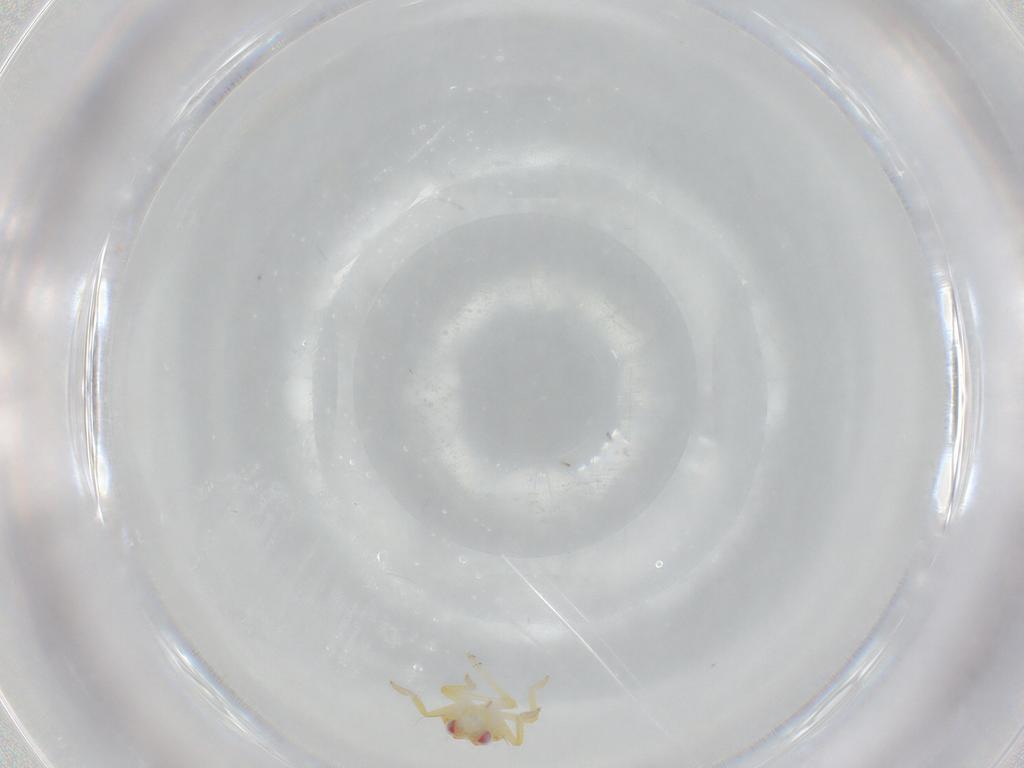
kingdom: Animalia
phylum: Arthropoda
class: Insecta
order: Hemiptera
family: Tropiduchidae
